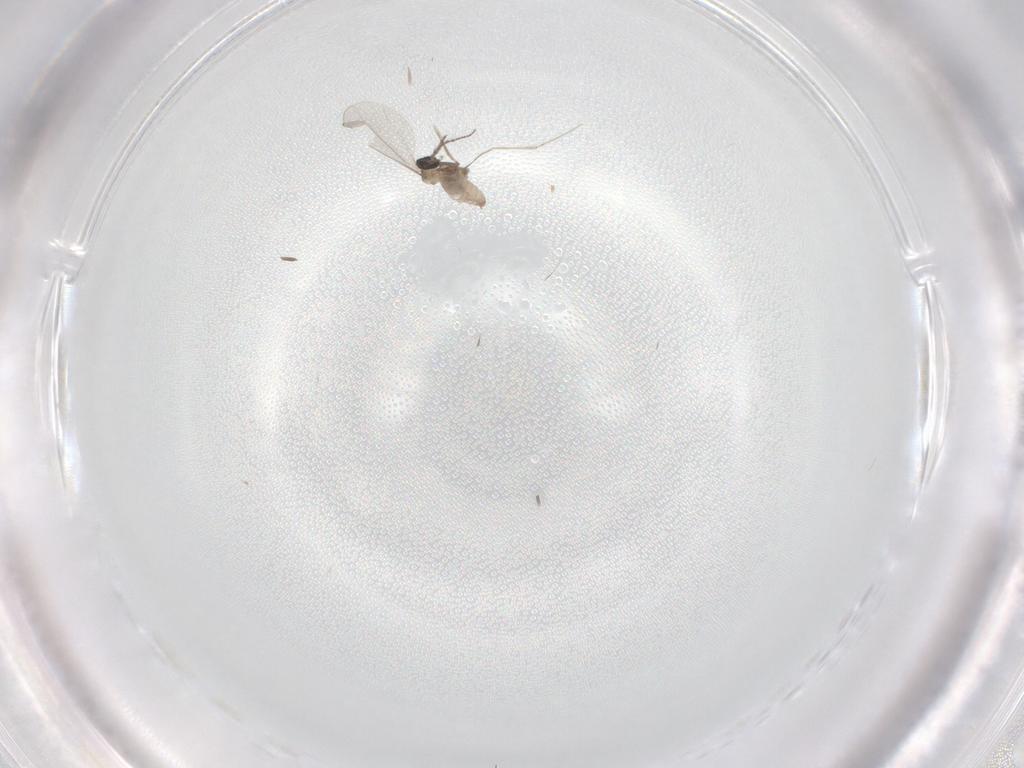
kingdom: Animalia
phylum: Arthropoda
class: Insecta
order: Diptera
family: Cecidomyiidae
